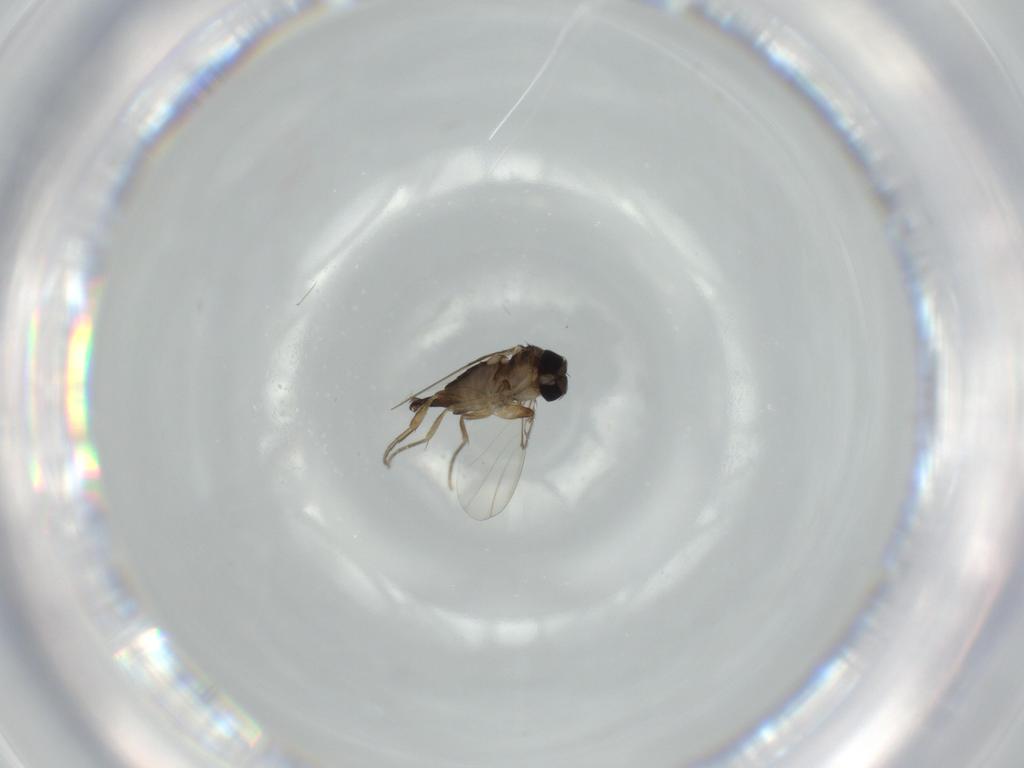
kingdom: Animalia
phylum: Arthropoda
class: Insecta
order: Diptera
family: Phoridae
